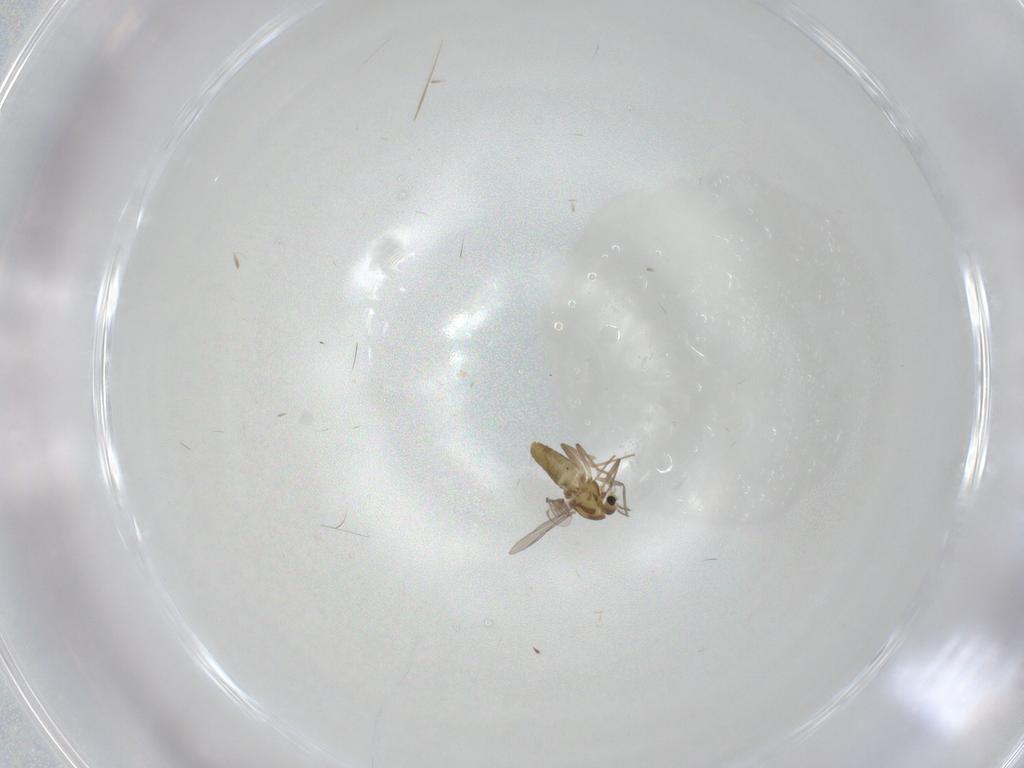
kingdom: Animalia
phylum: Arthropoda
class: Insecta
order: Diptera
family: Chironomidae
